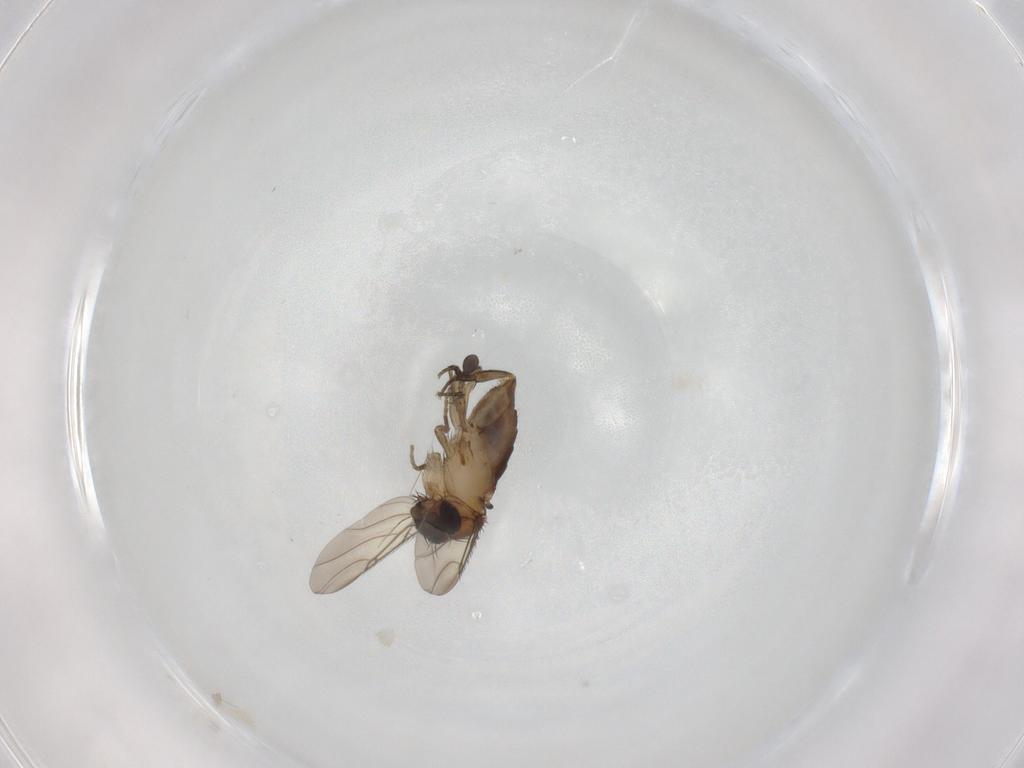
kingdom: Animalia
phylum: Arthropoda
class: Insecta
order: Diptera
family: Phoridae
